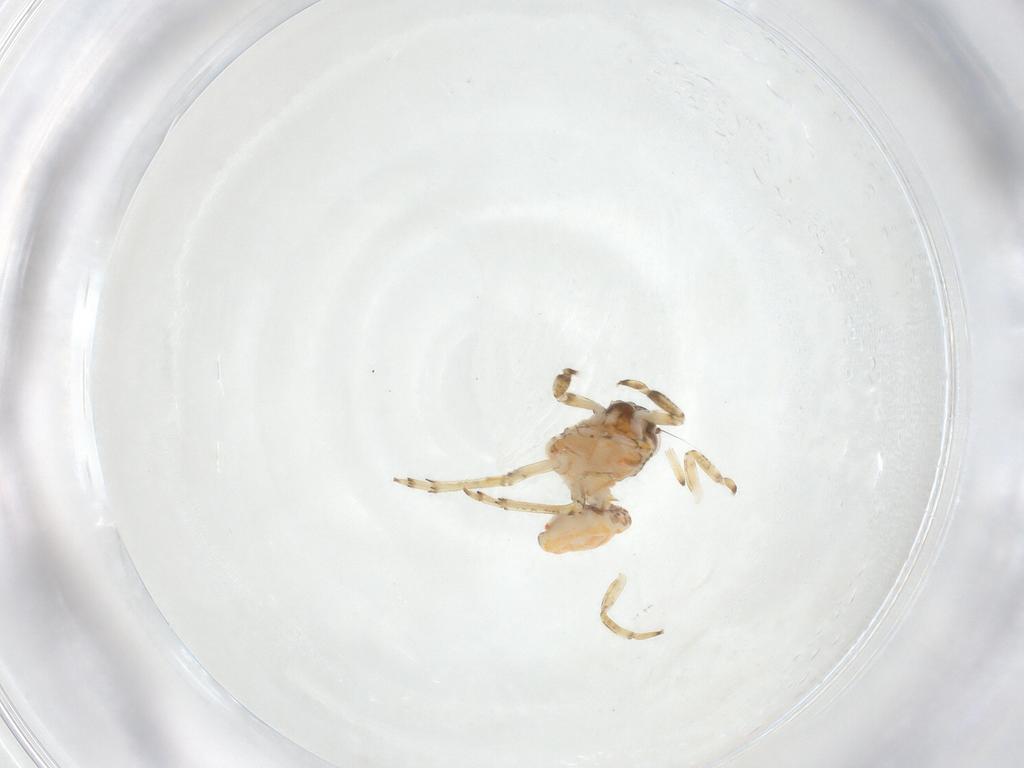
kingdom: Animalia
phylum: Arthropoda
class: Insecta
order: Hemiptera
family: Issidae
